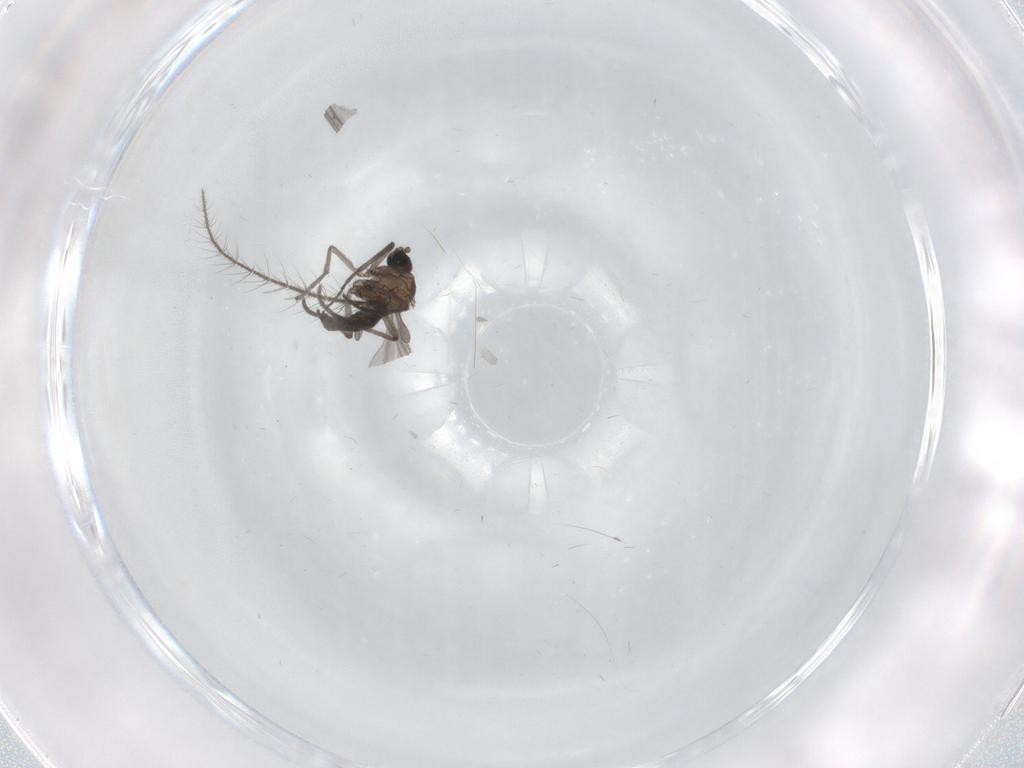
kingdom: Animalia
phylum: Arthropoda
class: Insecta
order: Diptera
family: Sciaridae
